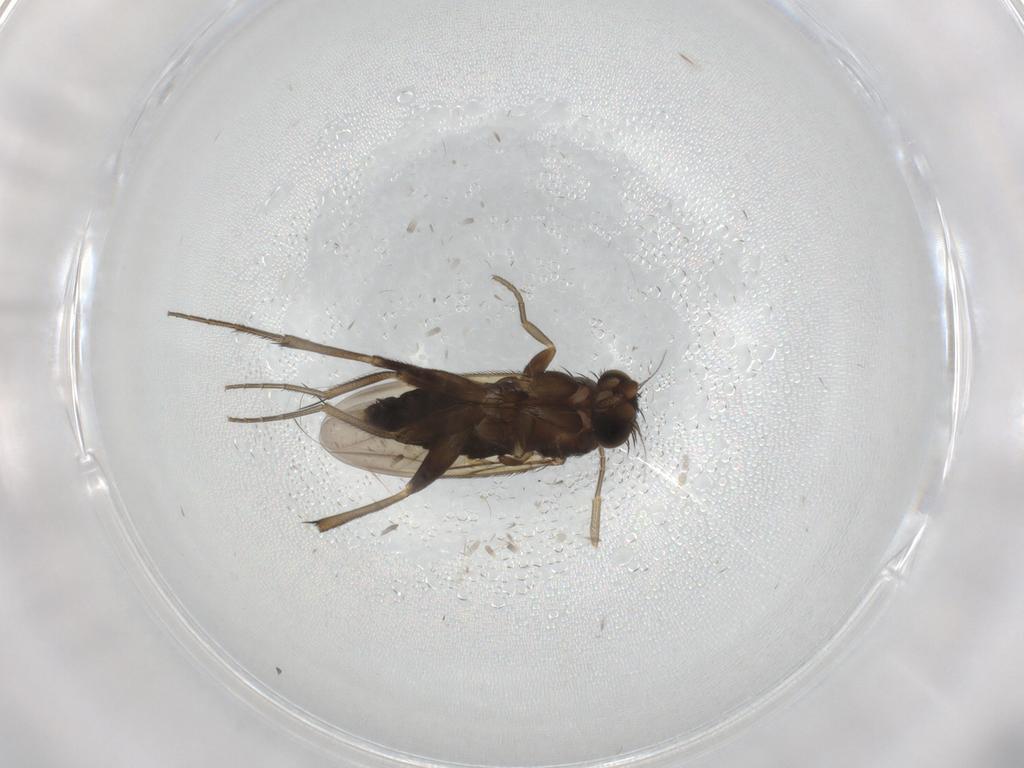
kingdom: Animalia
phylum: Arthropoda
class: Insecta
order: Diptera
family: Phoridae
